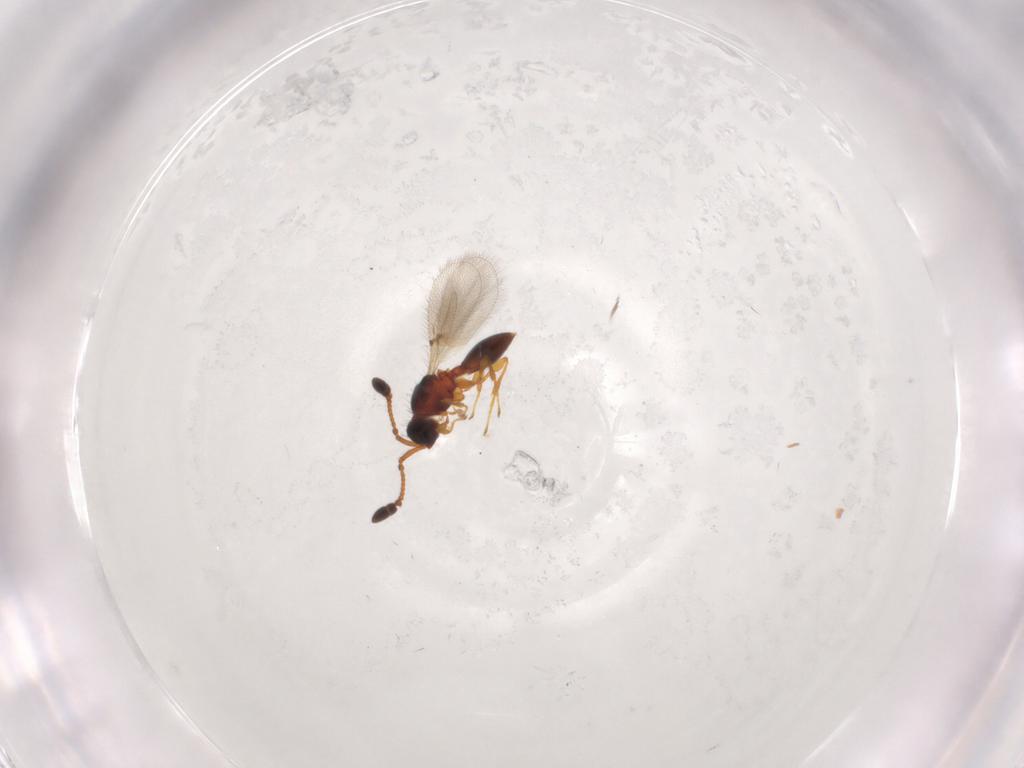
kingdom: Animalia
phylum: Arthropoda
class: Insecta
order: Hymenoptera
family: Diapriidae
